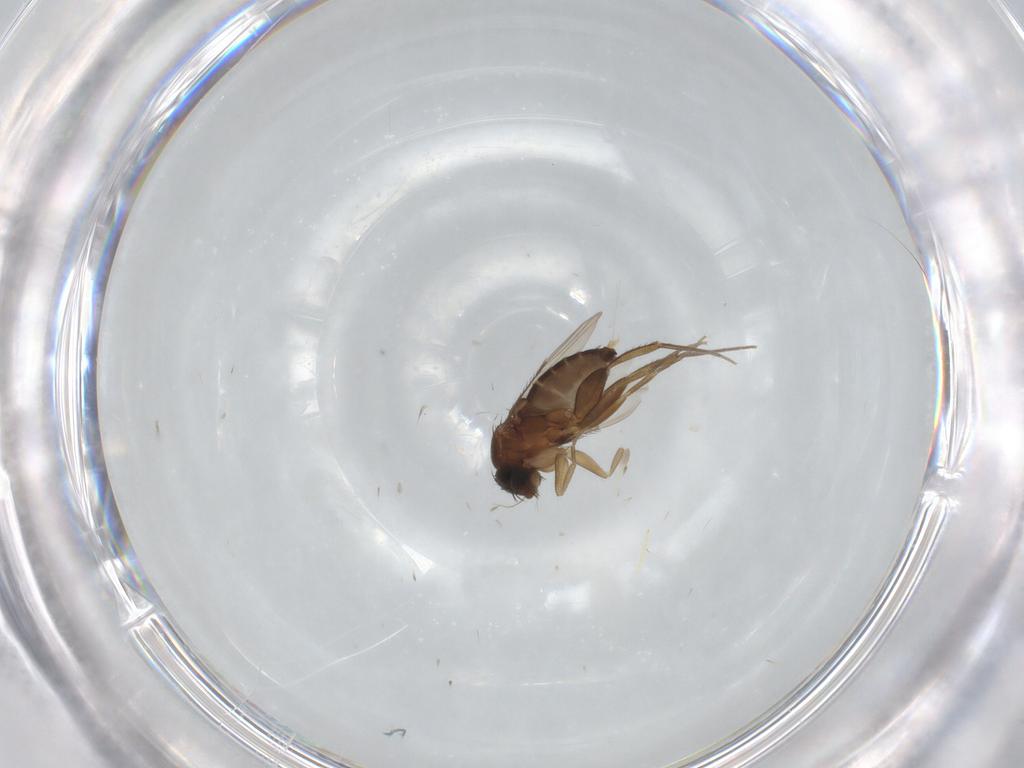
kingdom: Animalia
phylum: Arthropoda
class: Insecta
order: Diptera
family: Phoridae
